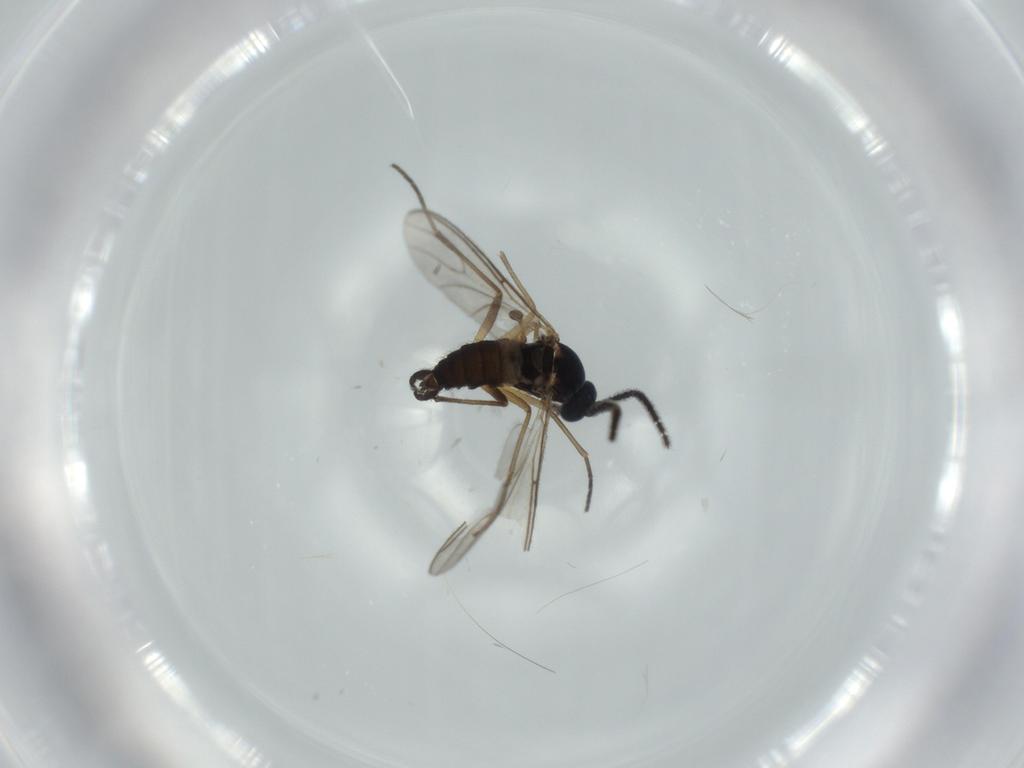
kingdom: Animalia
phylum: Arthropoda
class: Insecta
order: Diptera
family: Sciaridae
